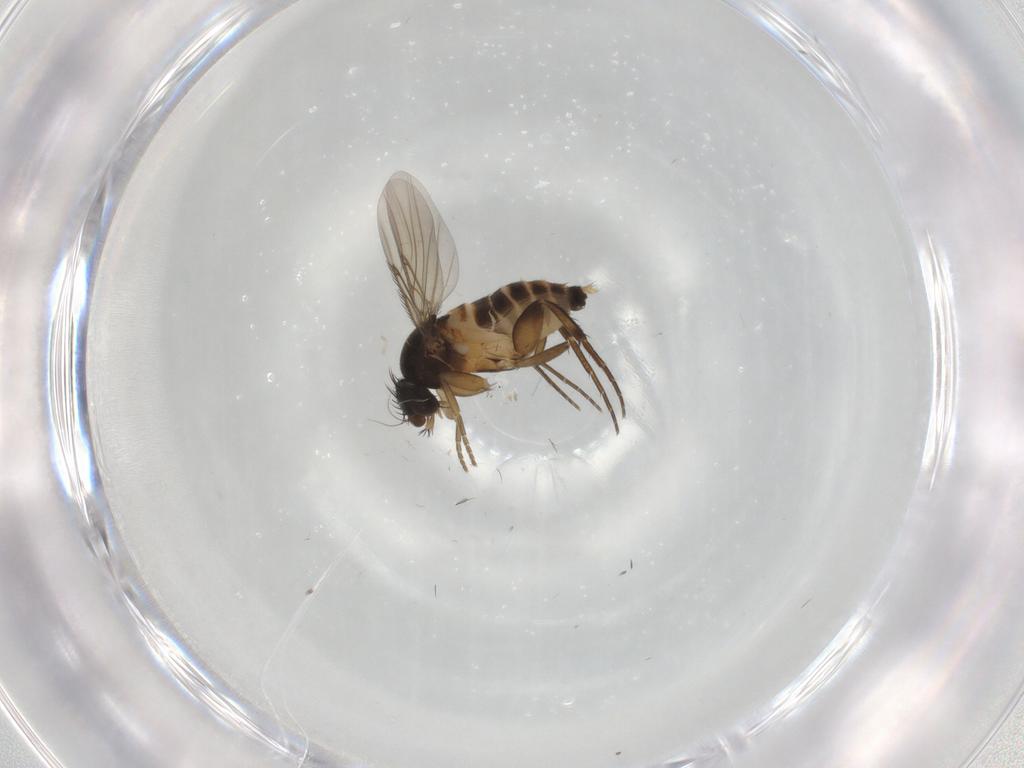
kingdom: Animalia
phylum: Arthropoda
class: Insecta
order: Diptera
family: Phoridae
